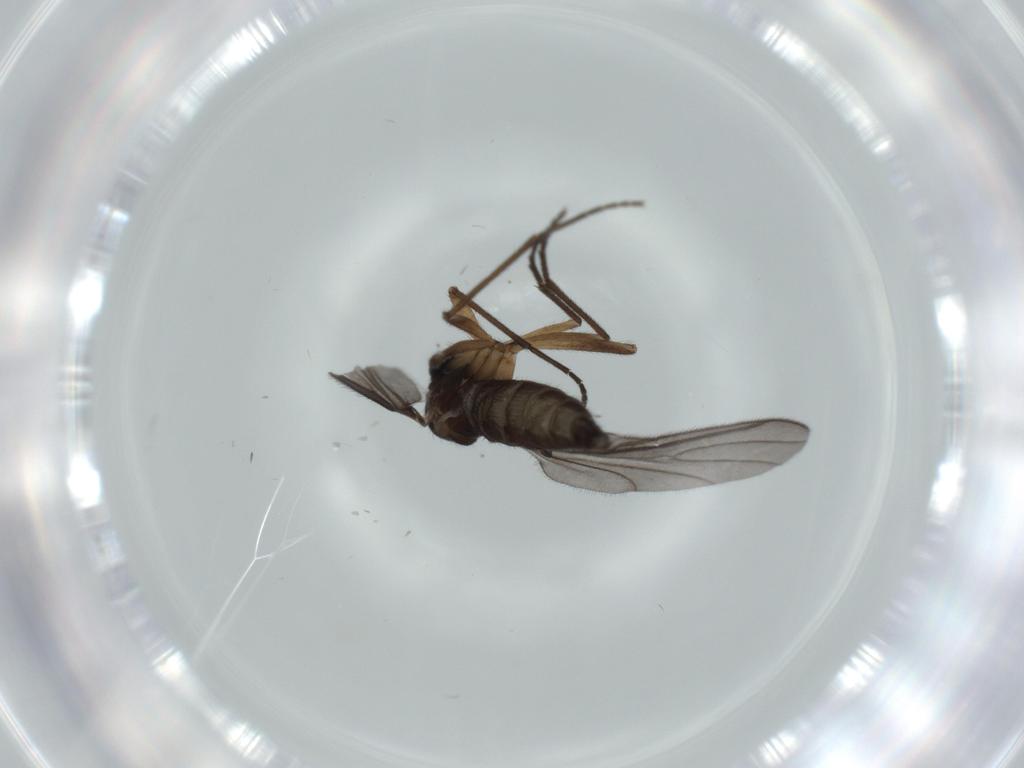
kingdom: Animalia
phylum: Arthropoda
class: Insecta
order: Diptera
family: Sciaridae
